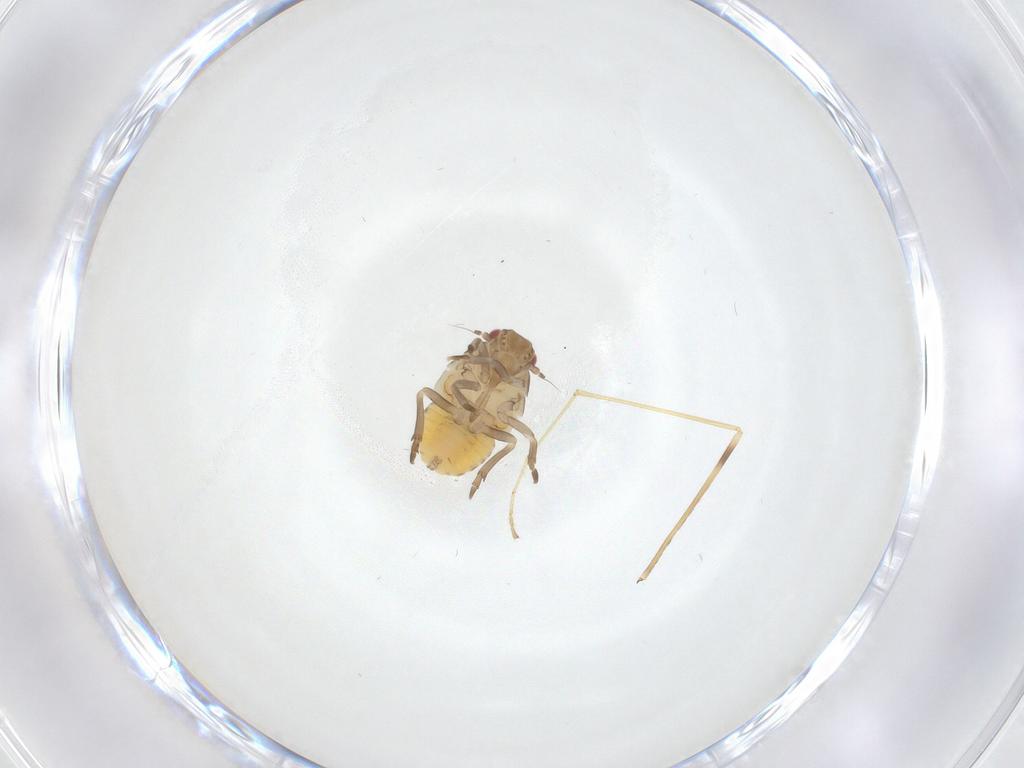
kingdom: Animalia
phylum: Arthropoda
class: Insecta
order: Hemiptera
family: Fulgoroidea_incertae_sedis
